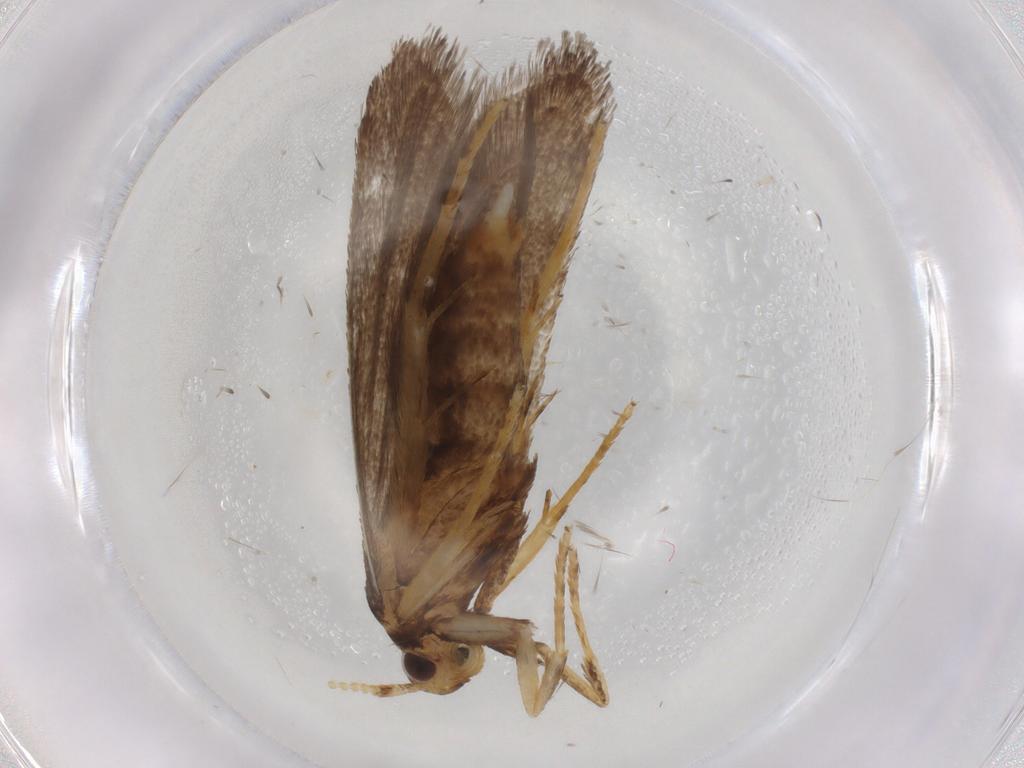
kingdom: Animalia
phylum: Arthropoda
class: Insecta
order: Lepidoptera
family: Lecithoceridae
